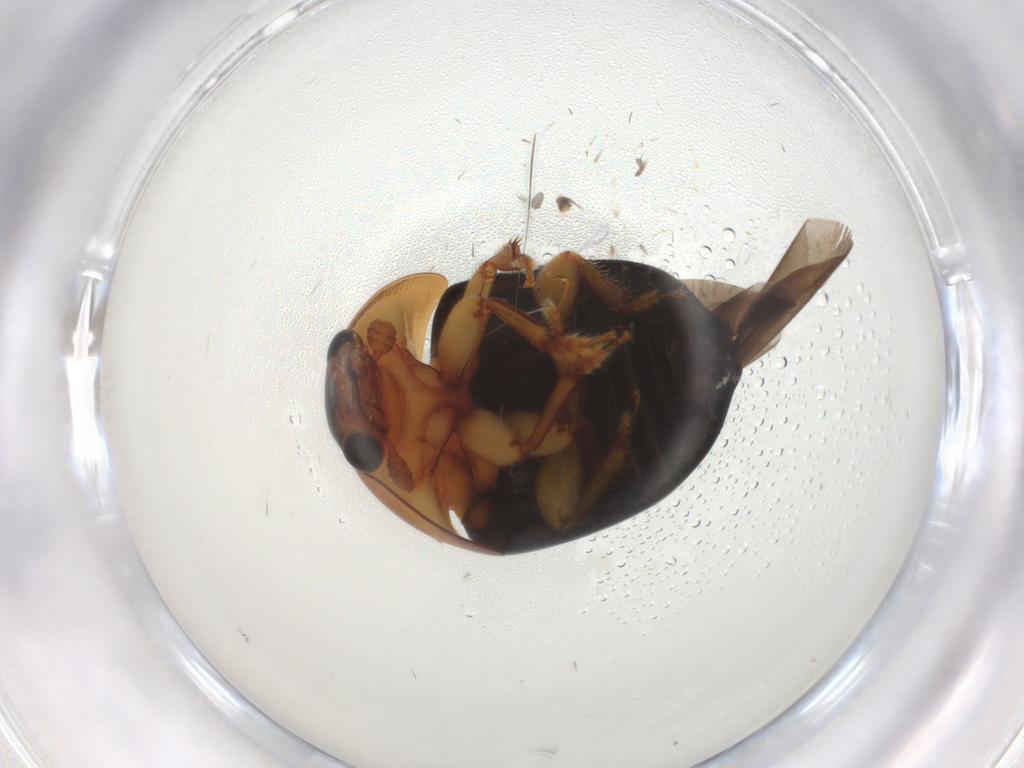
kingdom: Animalia
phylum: Arthropoda
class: Insecta
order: Coleoptera
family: Nitidulidae
